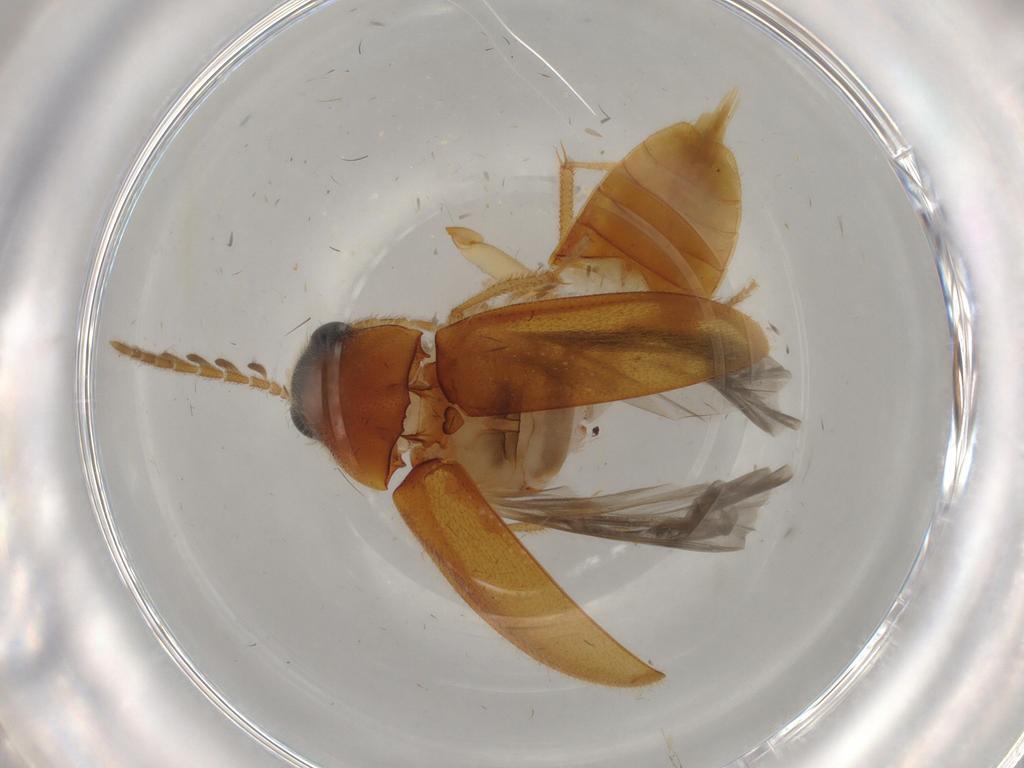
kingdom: Animalia
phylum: Arthropoda
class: Insecta
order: Coleoptera
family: Ptilodactylidae
